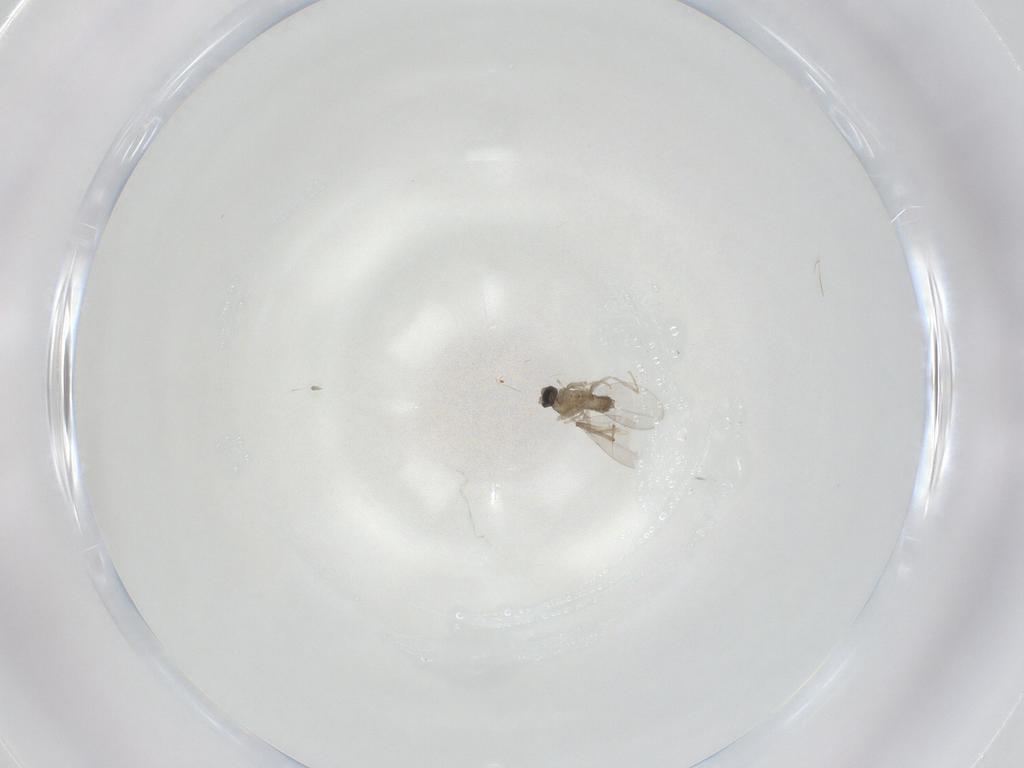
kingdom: Animalia
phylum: Arthropoda
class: Insecta
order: Diptera
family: Cecidomyiidae
